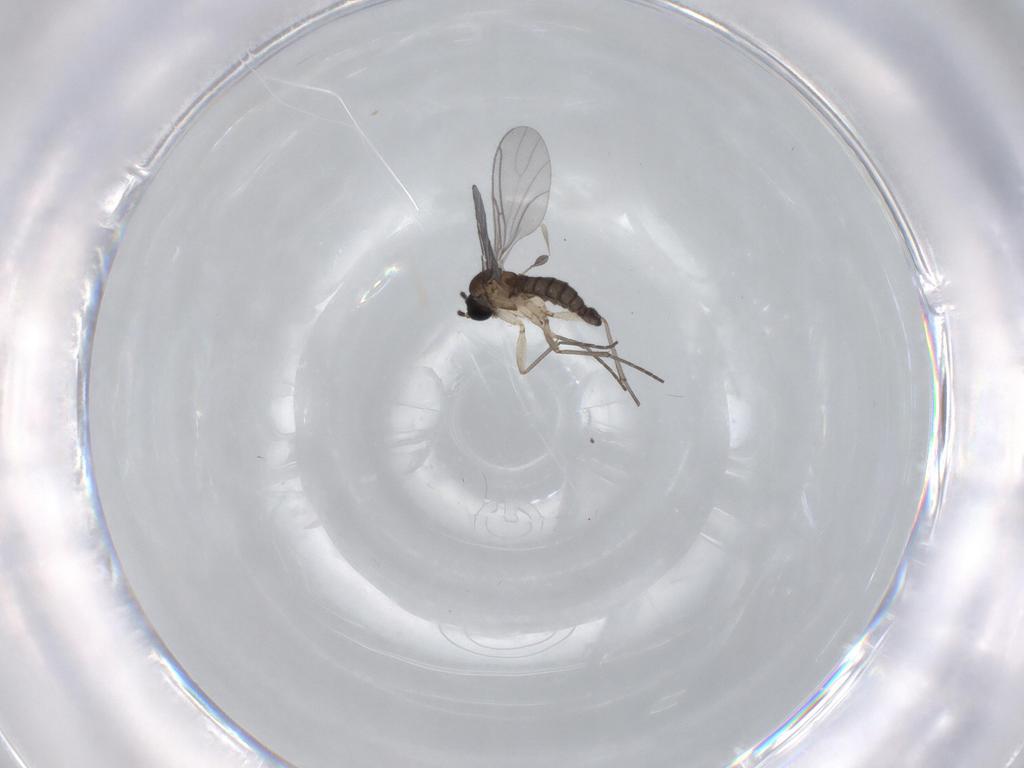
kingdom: Animalia
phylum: Arthropoda
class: Insecta
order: Diptera
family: Sciaridae
